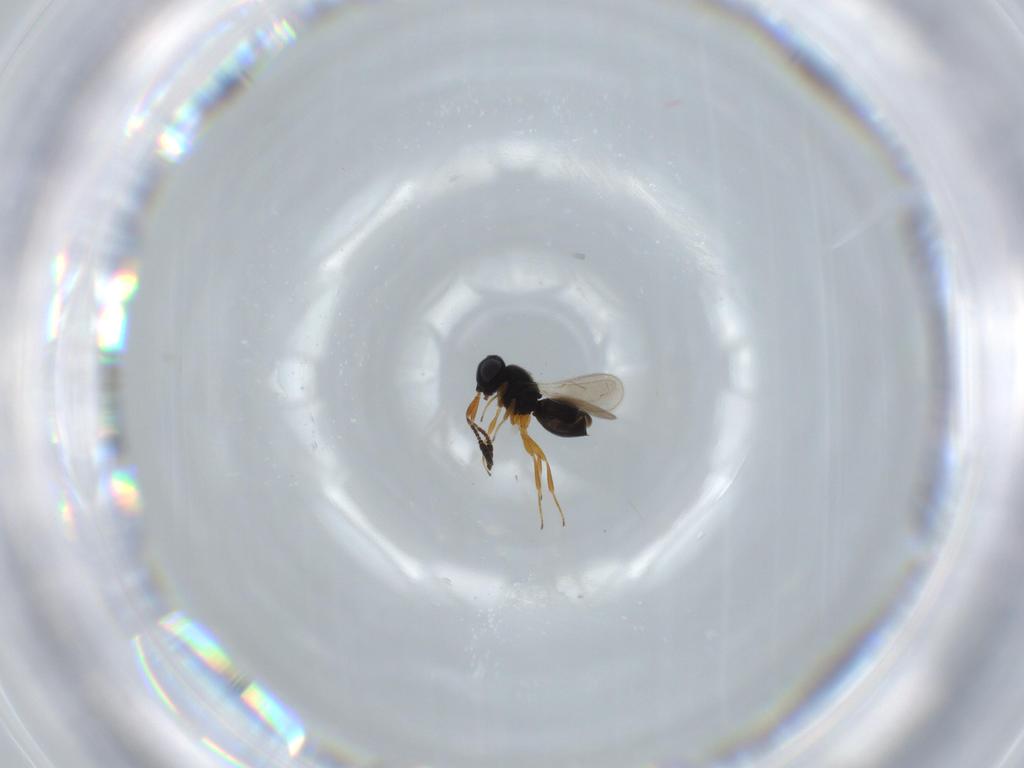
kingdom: Animalia
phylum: Arthropoda
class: Insecta
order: Hymenoptera
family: Scelionidae
